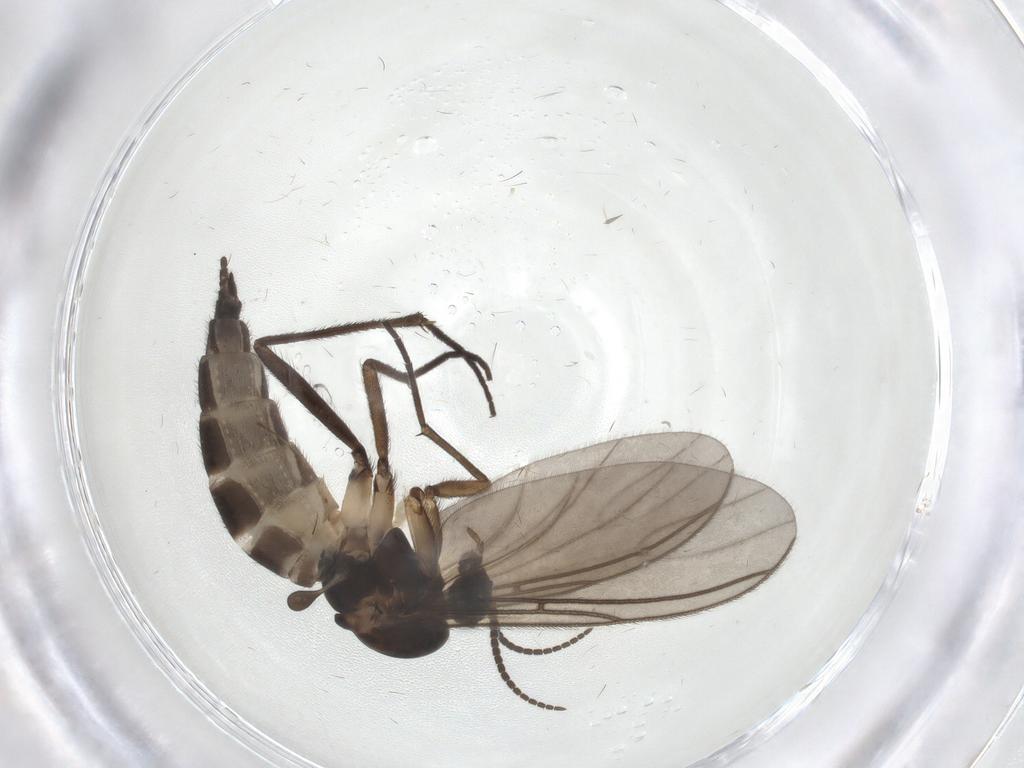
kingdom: Animalia
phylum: Arthropoda
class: Insecta
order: Diptera
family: Sciaridae
